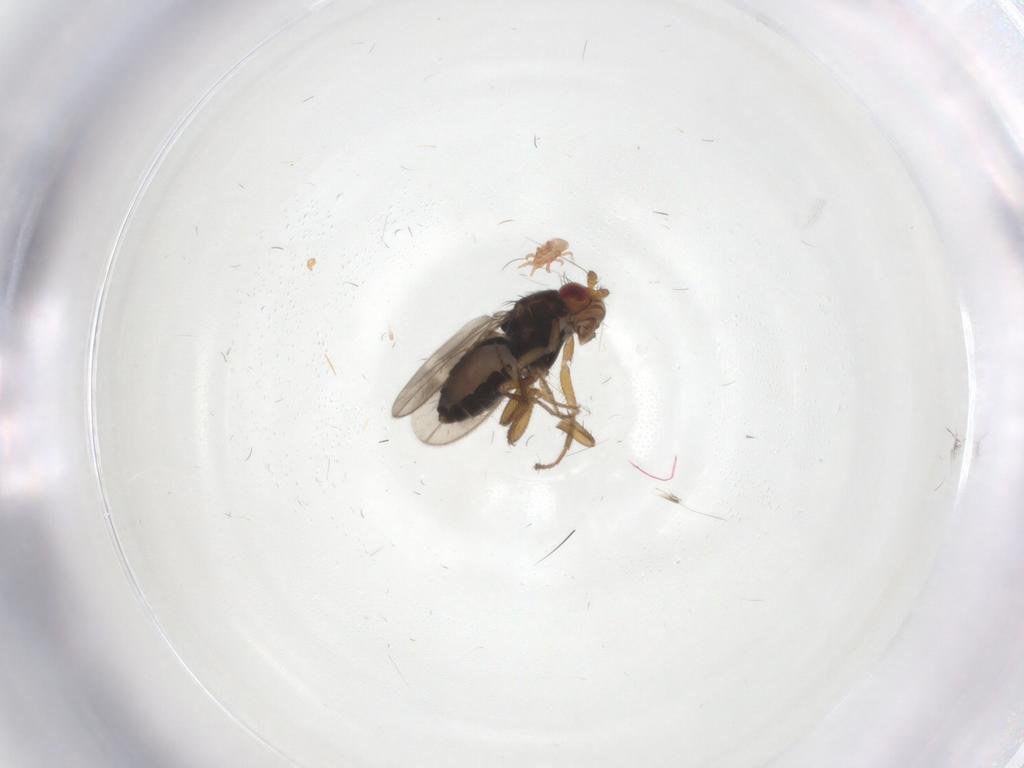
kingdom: Animalia
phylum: Arthropoda
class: Insecta
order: Diptera
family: Sphaeroceridae
